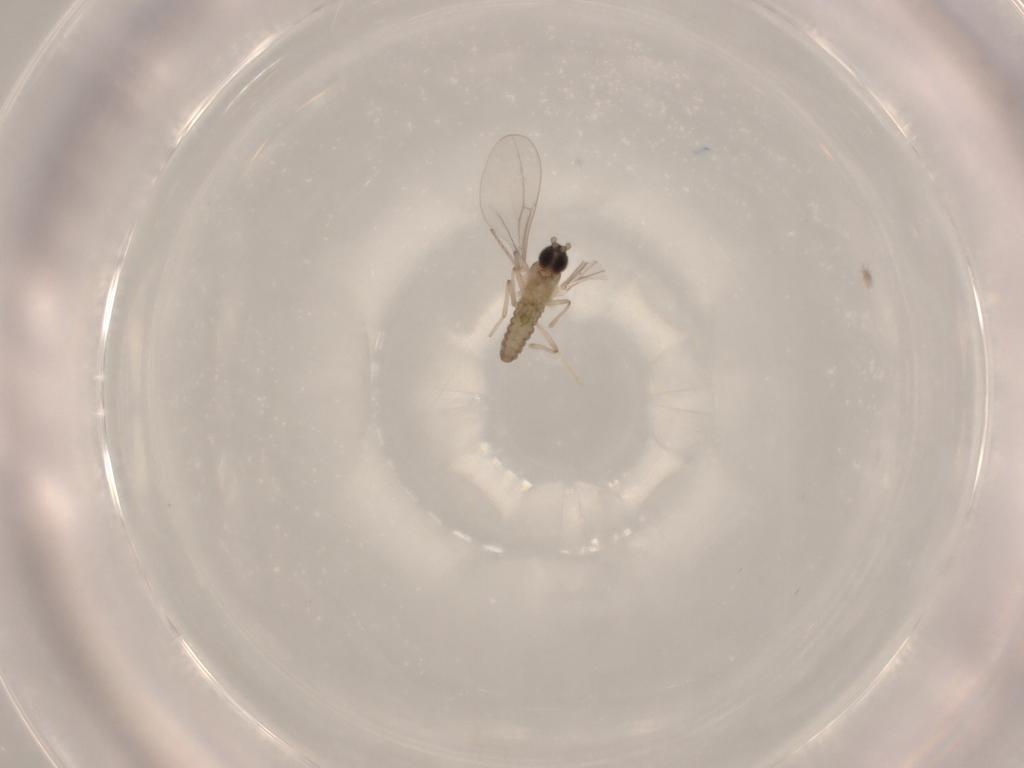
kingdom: Animalia
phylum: Arthropoda
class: Insecta
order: Diptera
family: Cecidomyiidae
